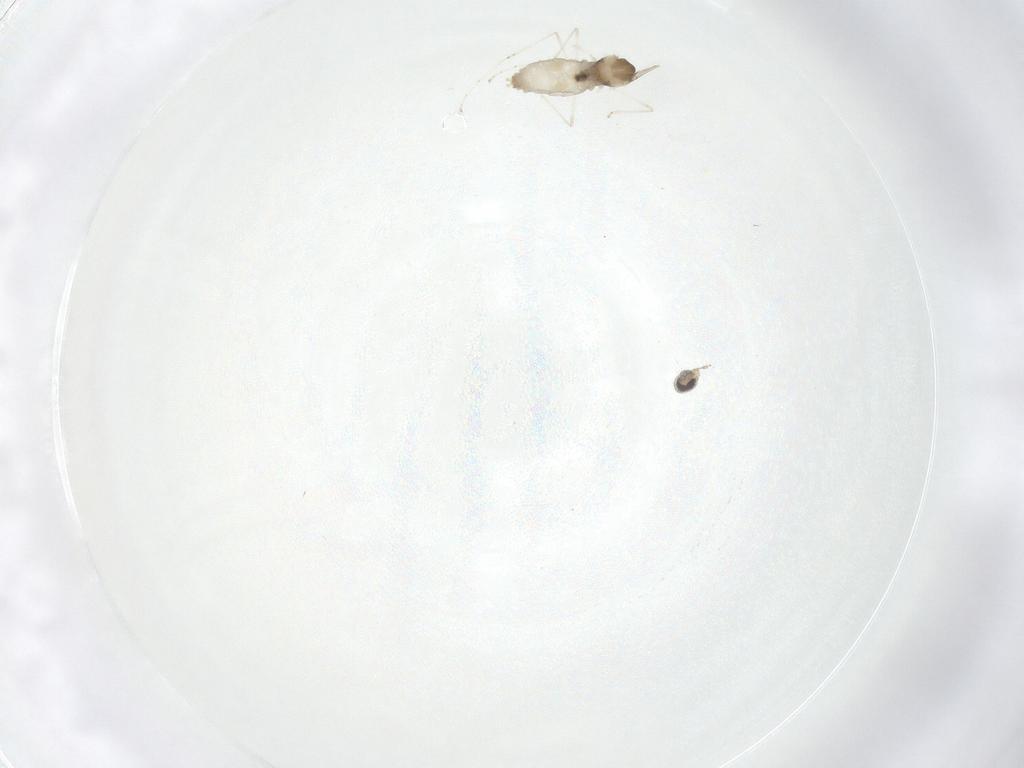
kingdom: Animalia
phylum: Arthropoda
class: Insecta
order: Diptera
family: Cecidomyiidae
